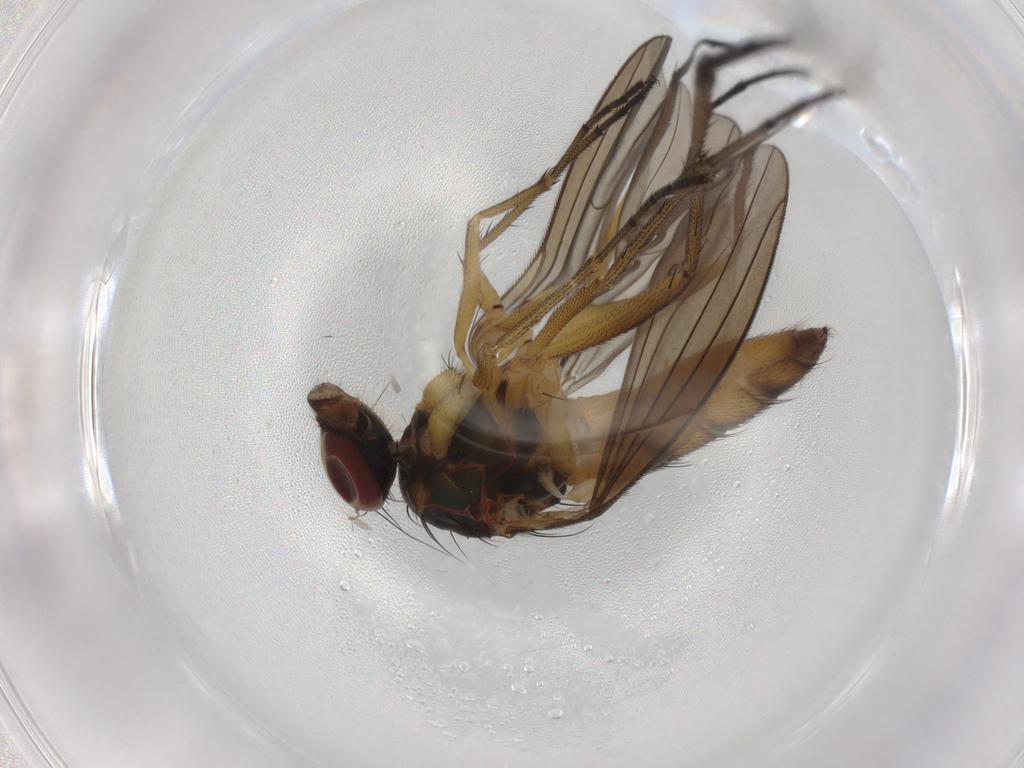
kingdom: Animalia
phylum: Arthropoda
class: Insecta
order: Diptera
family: Dolichopodidae
